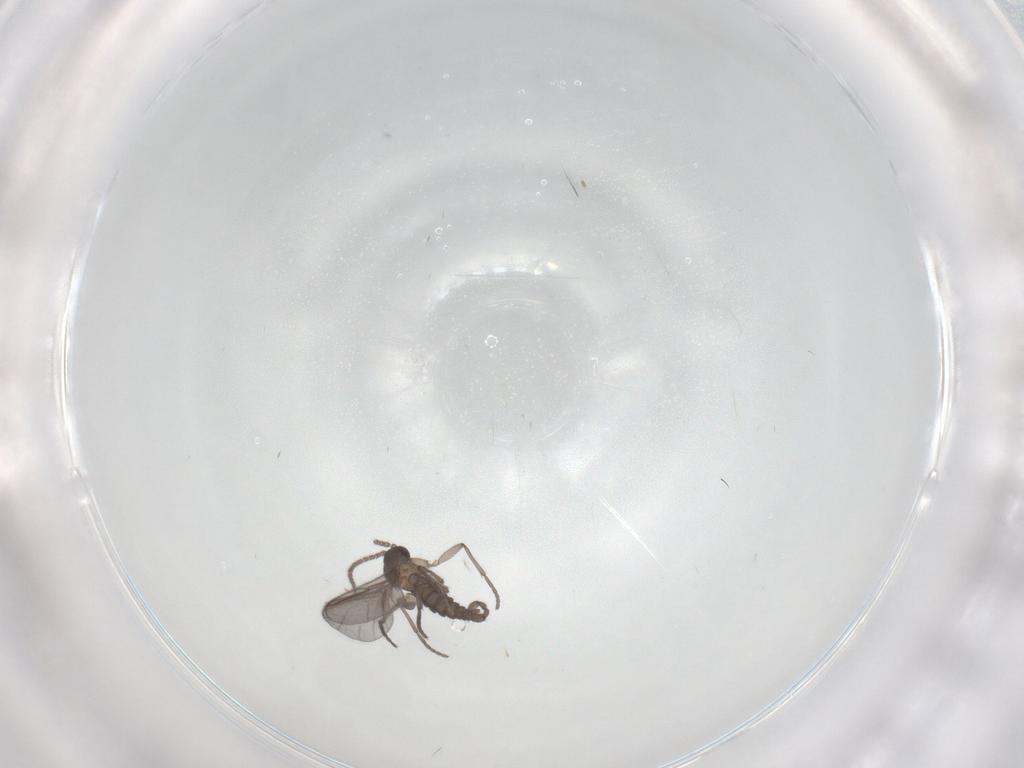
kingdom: Animalia
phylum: Arthropoda
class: Insecta
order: Diptera
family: Sciaridae
